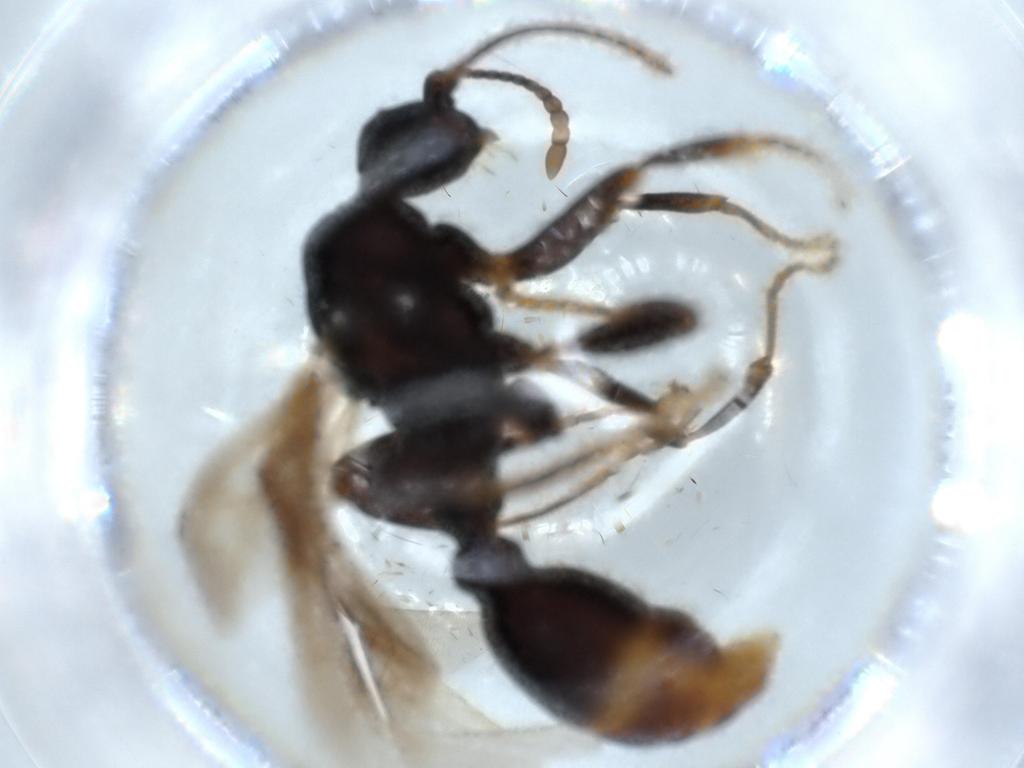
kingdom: Animalia
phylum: Arthropoda
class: Insecta
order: Hymenoptera
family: Formicidae
